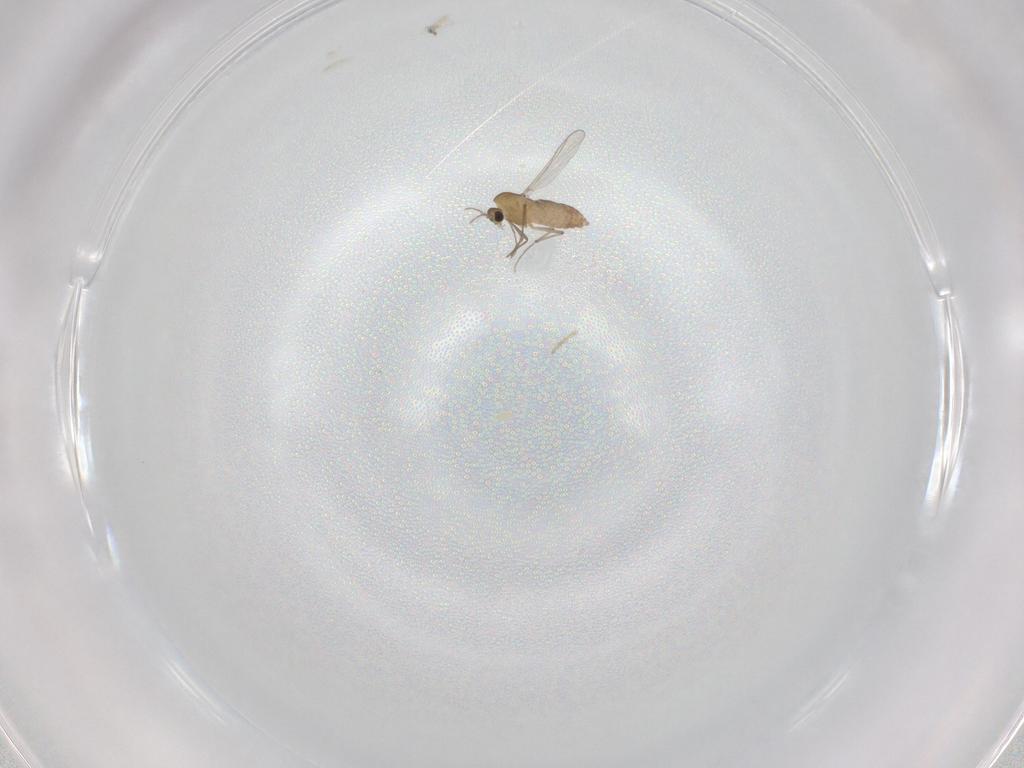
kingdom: Animalia
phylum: Arthropoda
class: Insecta
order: Diptera
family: Chironomidae
